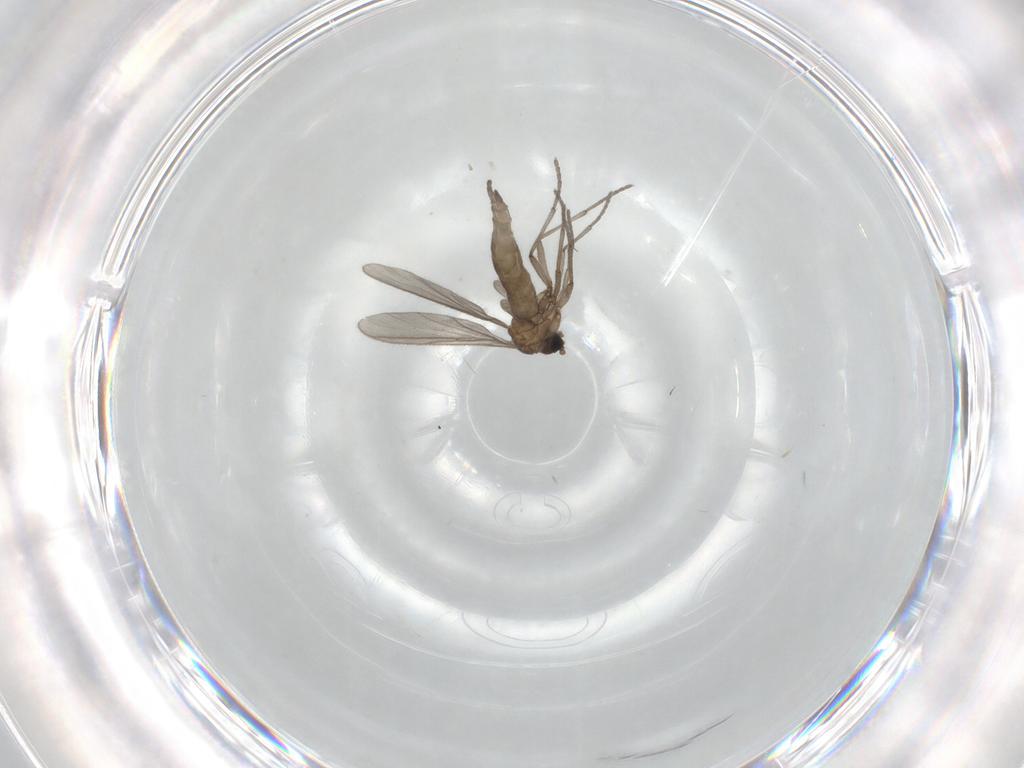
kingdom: Animalia
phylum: Arthropoda
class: Insecta
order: Diptera
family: Sciaridae
